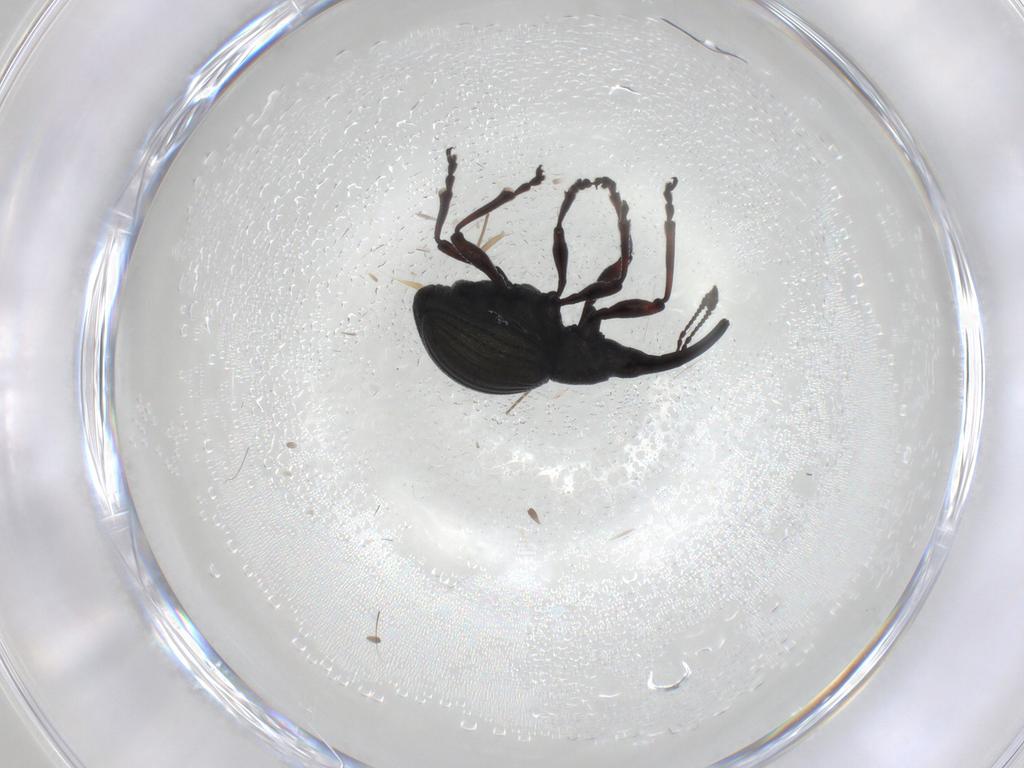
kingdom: Animalia
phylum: Arthropoda
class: Insecta
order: Coleoptera
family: Brentidae
